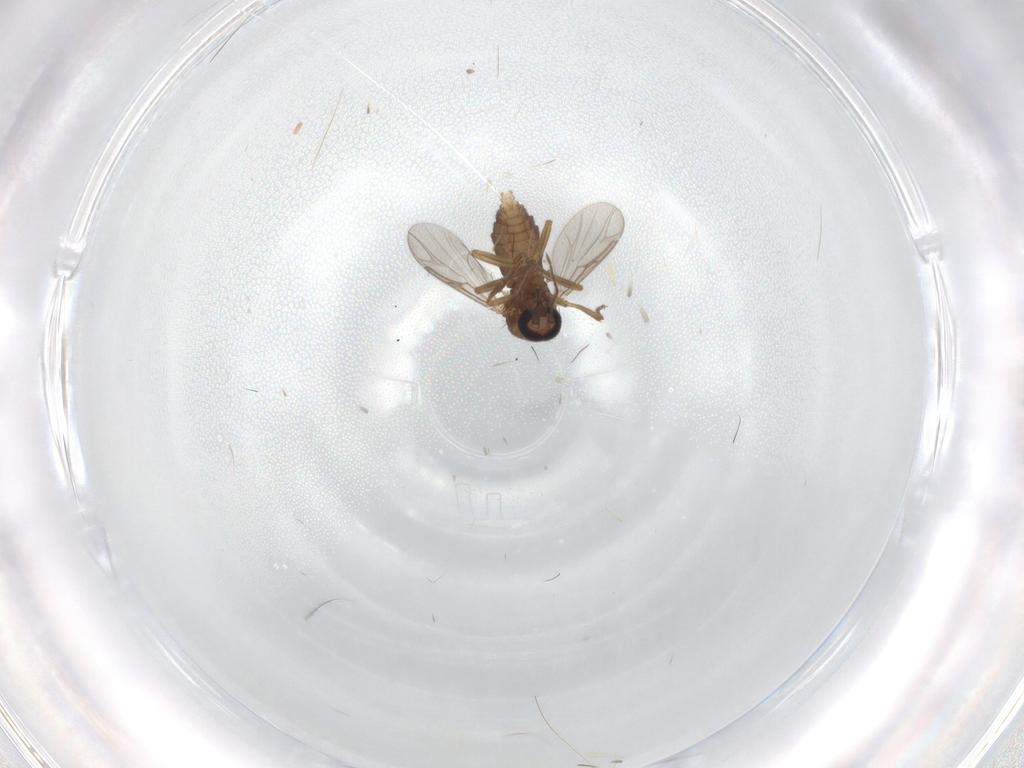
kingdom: Animalia
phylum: Arthropoda
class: Insecta
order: Diptera
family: Ceratopogonidae
